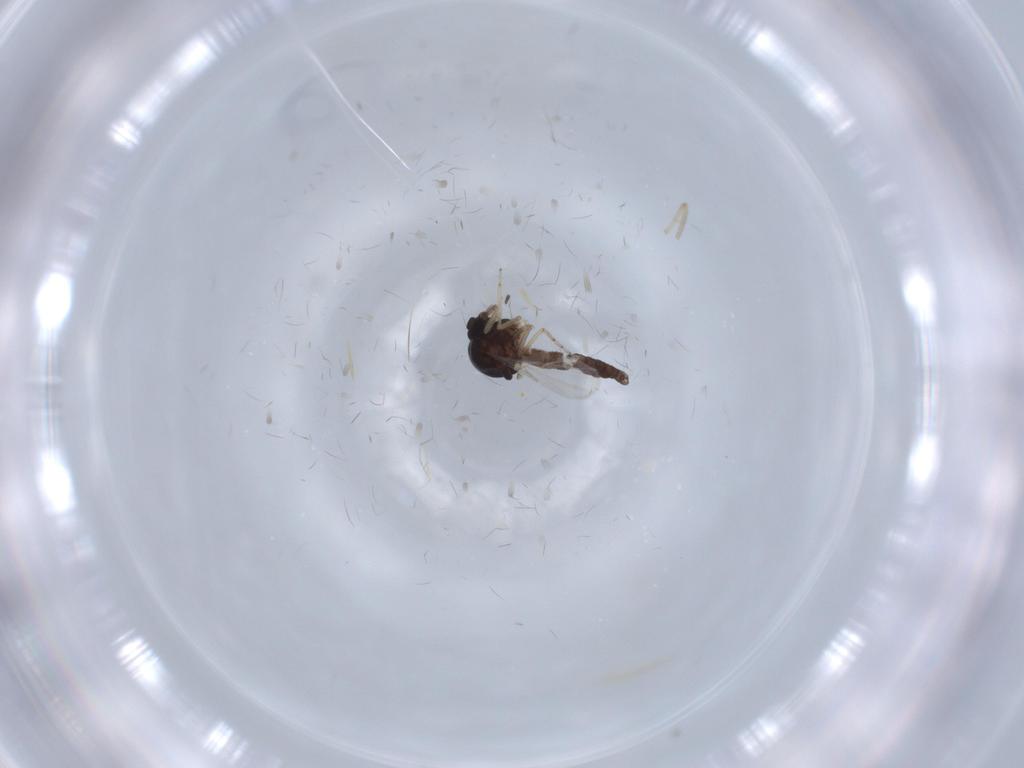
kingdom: Animalia
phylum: Arthropoda
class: Insecta
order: Diptera
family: Ceratopogonidae
